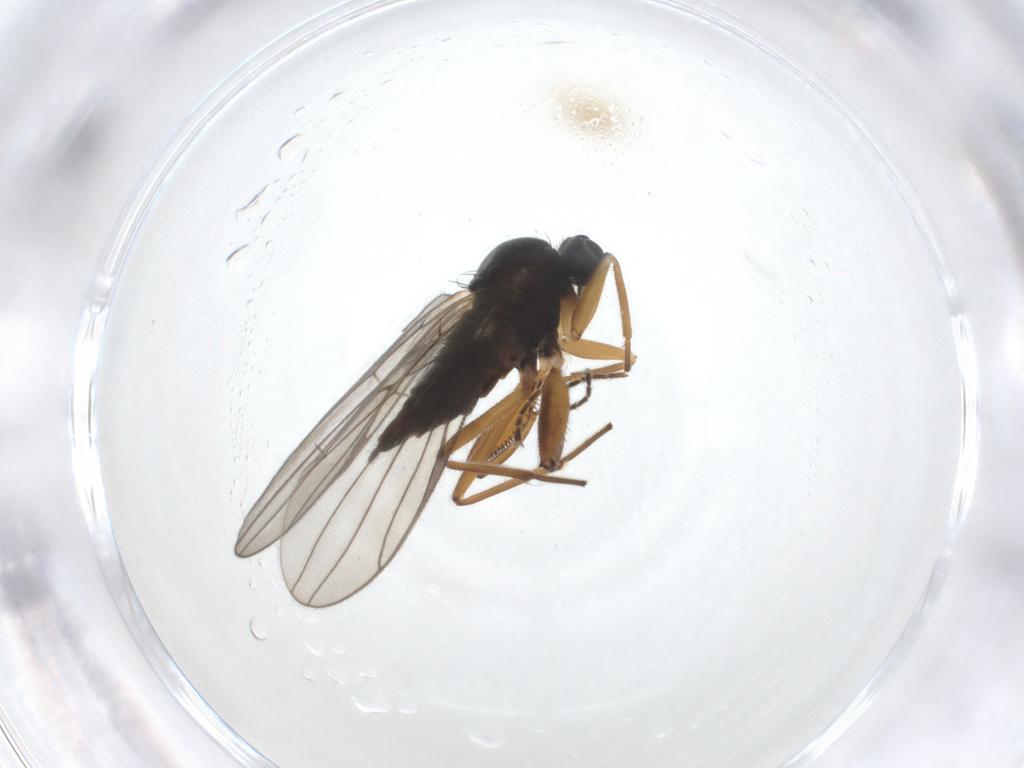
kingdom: Animalia
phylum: Arthropoda
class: Insecta
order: Diptera
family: Hybotidae
